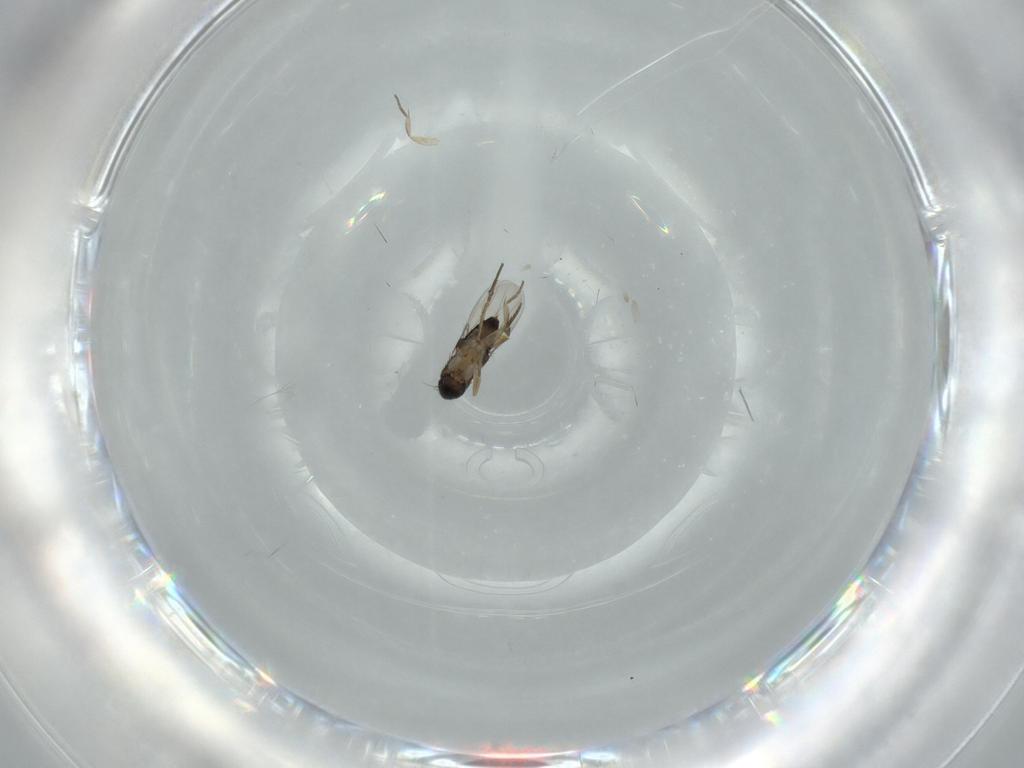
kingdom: Animalia
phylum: Arthropoda
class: Insecta
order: Diptera
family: Phoridae
